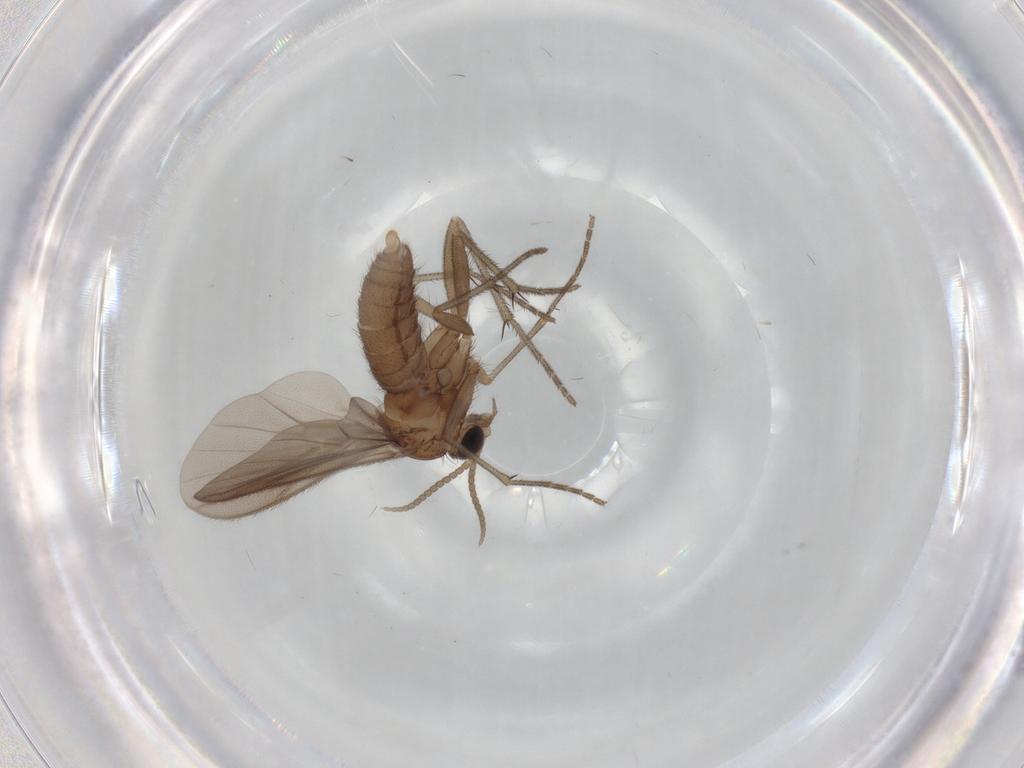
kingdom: Animalia
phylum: Arthropoda
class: Insecta
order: Diptera
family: Diadocidiidae
